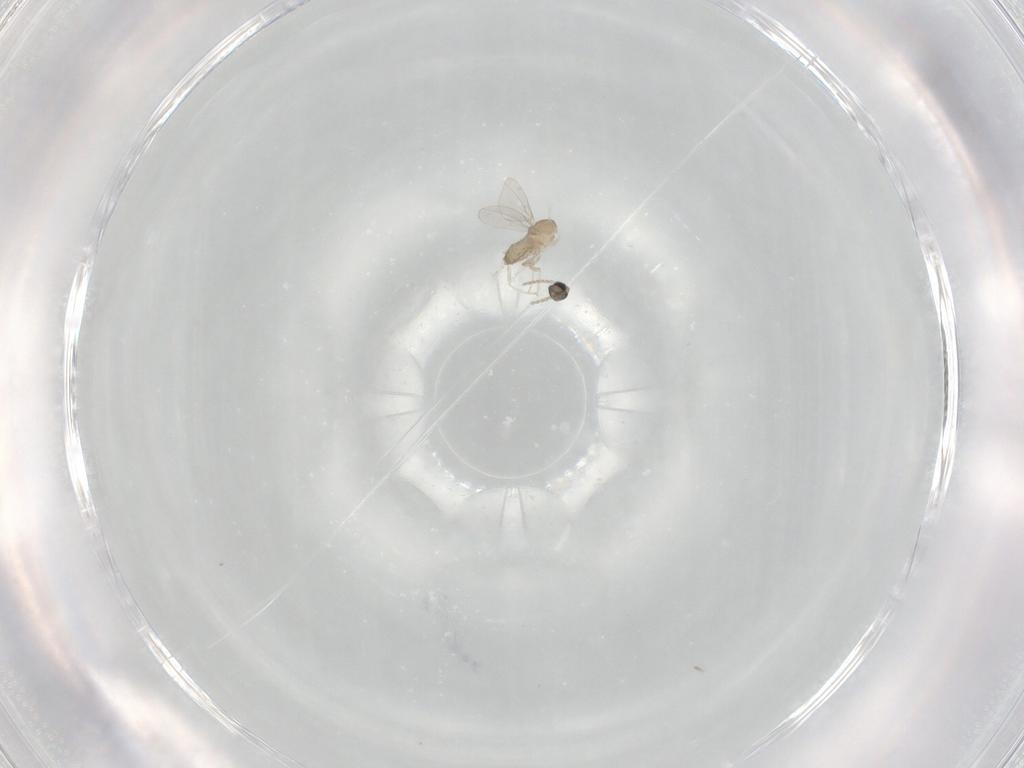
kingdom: Animalia
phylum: Arthropoda
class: Insecta
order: Diptera
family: Cecidomyiidae
